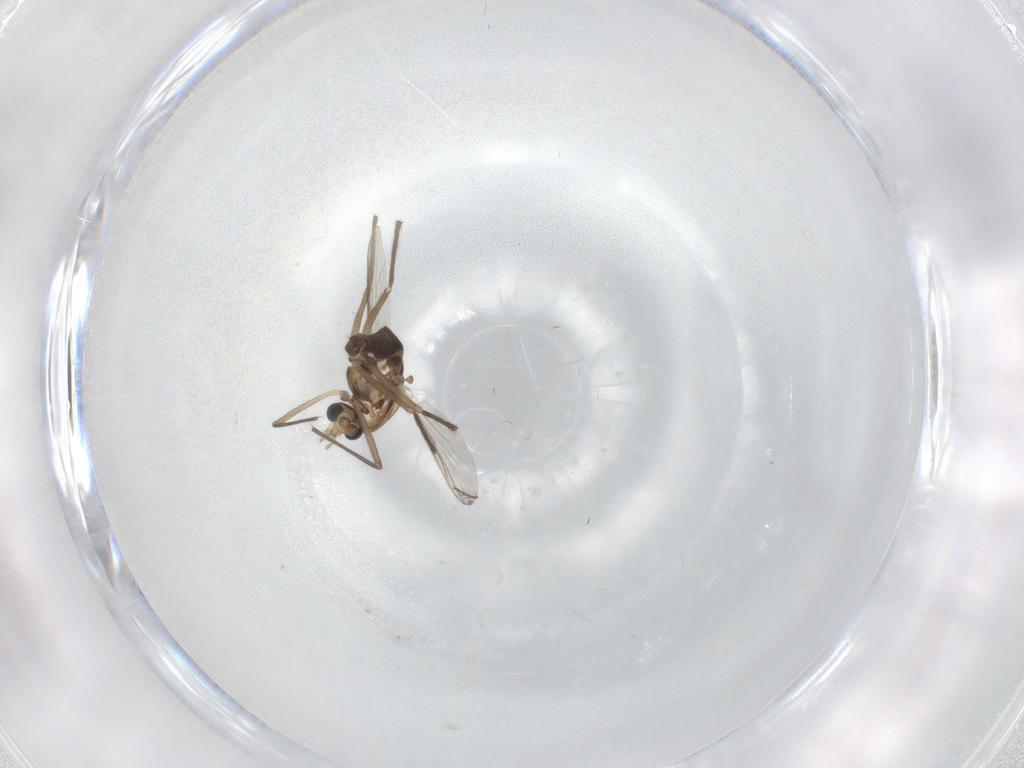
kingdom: Animalia
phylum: Arthropoda
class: Insecta
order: Diptera
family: Chironomidae
